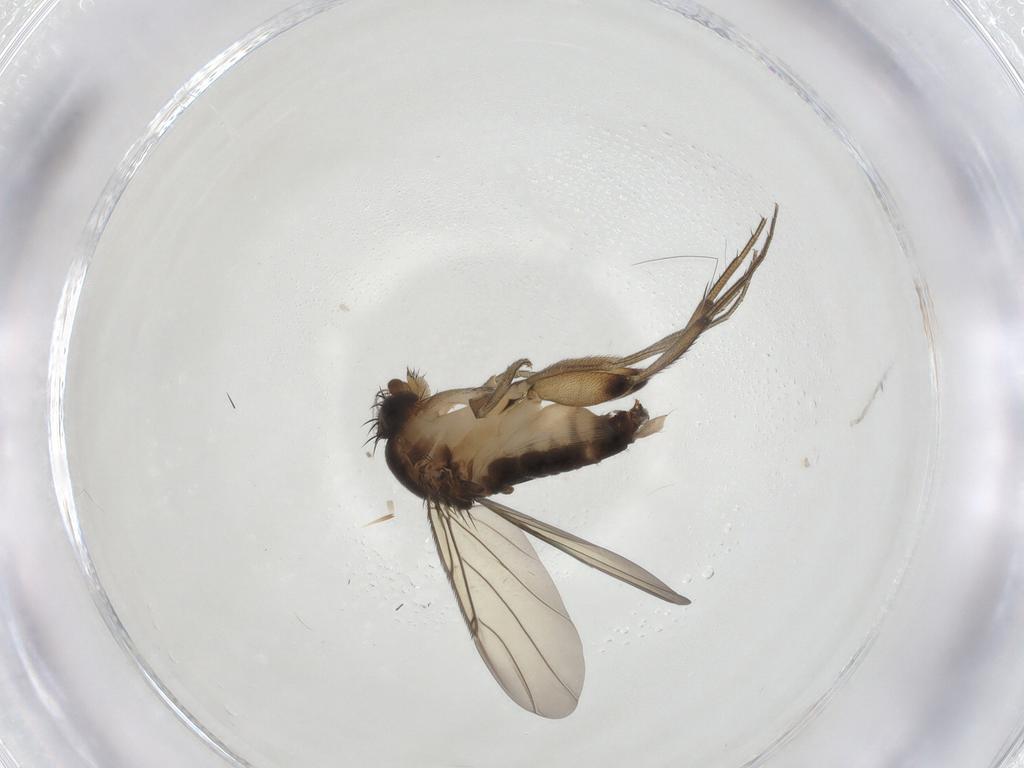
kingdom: Animalia
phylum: Arthropoda
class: Insecta
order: Diptera
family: Phoridae
